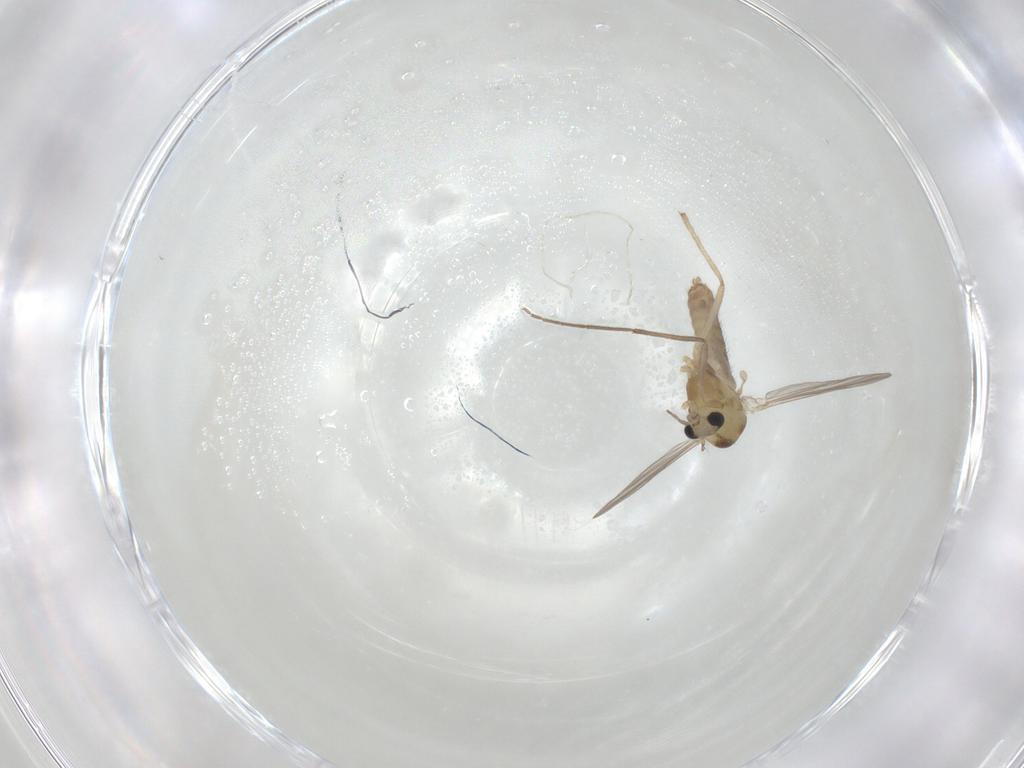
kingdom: Animalia
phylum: Arthropoda
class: Insecta
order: Diptera
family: Chironomidae
